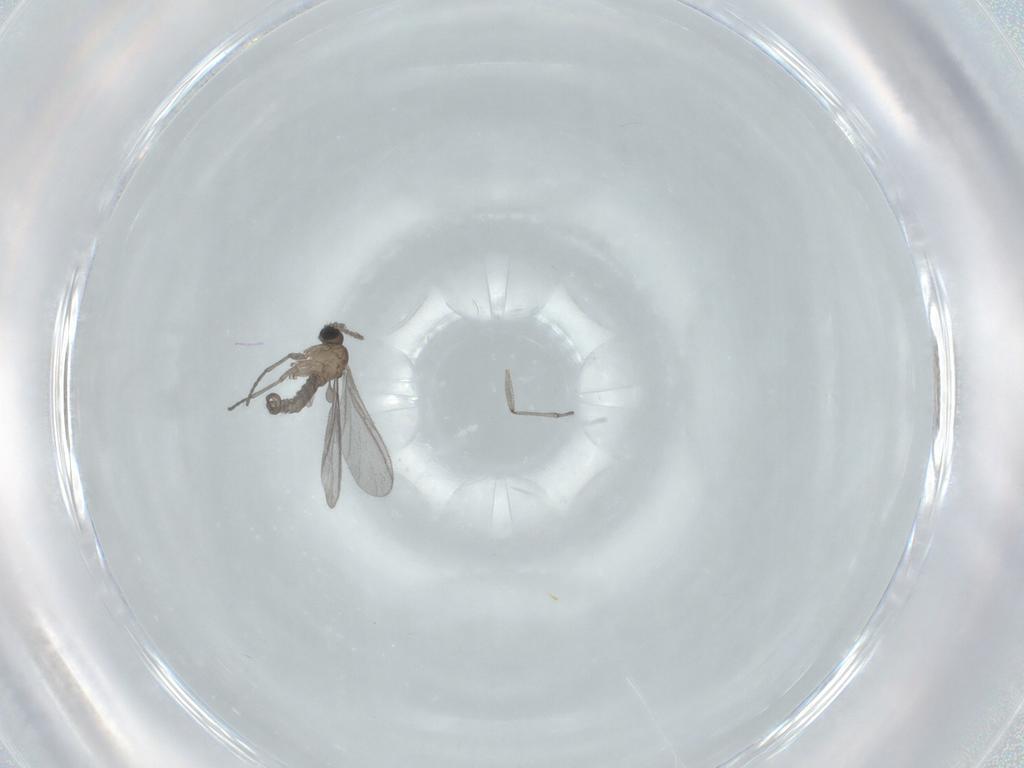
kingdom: Animalia
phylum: Arthropoda
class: Insecta
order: Diptera
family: Sciaridae
